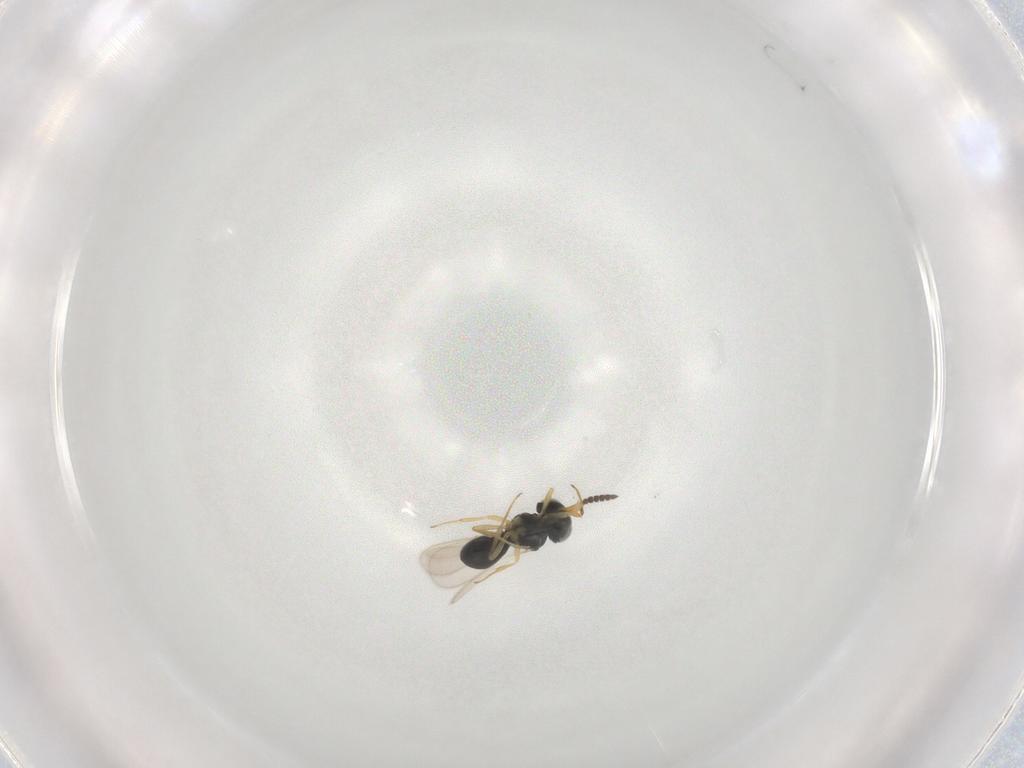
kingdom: Animalia
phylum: Arthropoda
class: Insecta
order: Hymenoptera
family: Scelionidae
